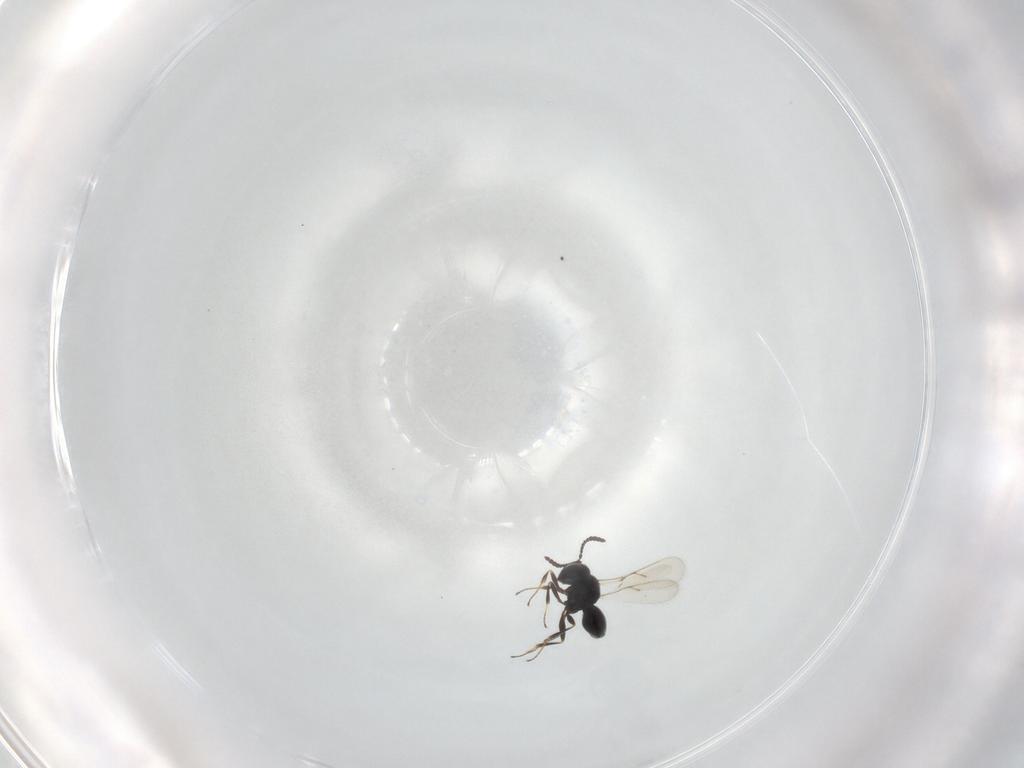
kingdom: Animalia
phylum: Arthropoda
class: Insecta
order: Hymenoptera
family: Scelionidae
